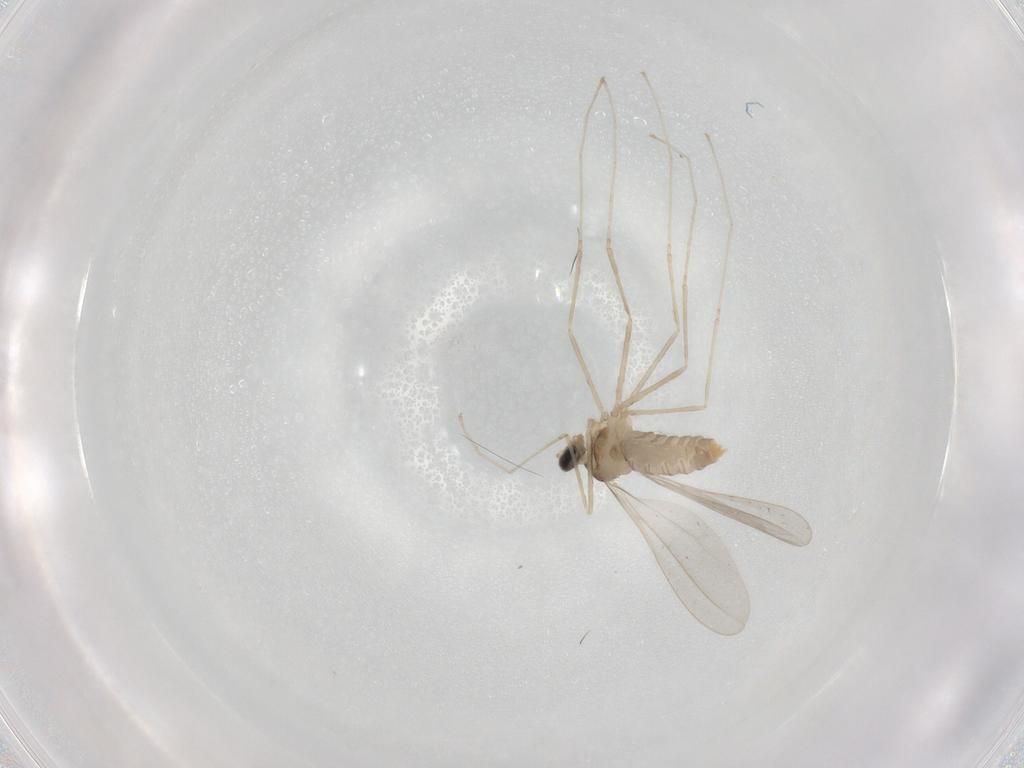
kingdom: Animalia
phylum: Arthropoda
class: Insecta
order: Diptera
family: Cecidomyiidae
